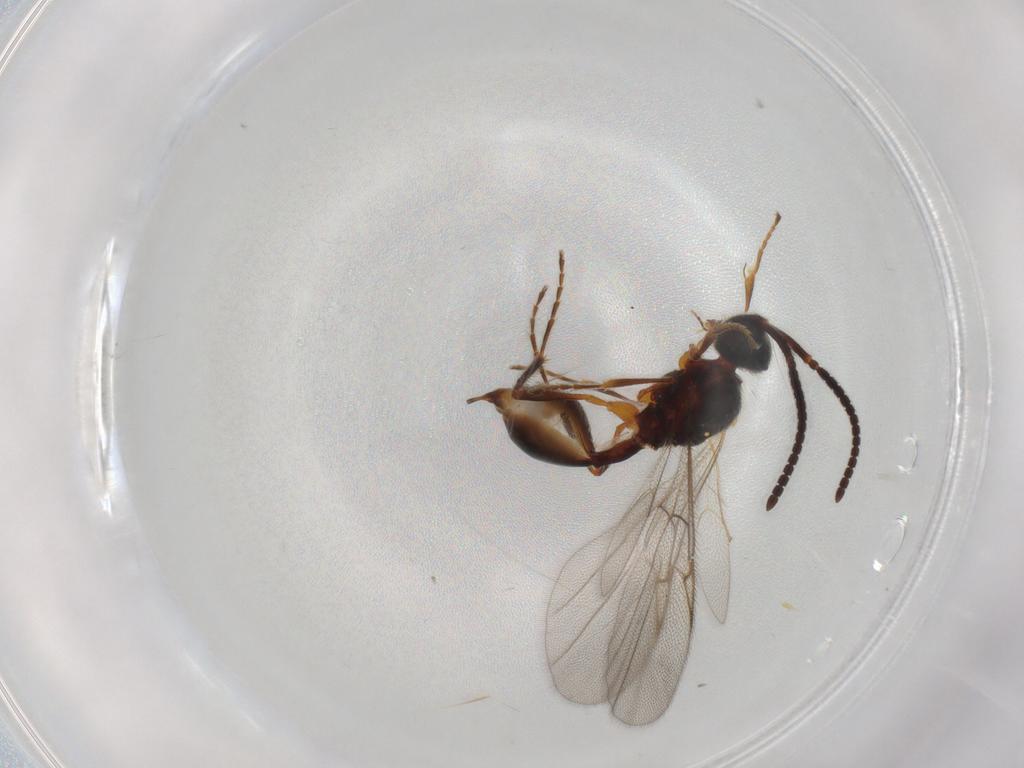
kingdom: Animalia
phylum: Arthropoda
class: Insecta
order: Hymenoptera
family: Diapriidae
